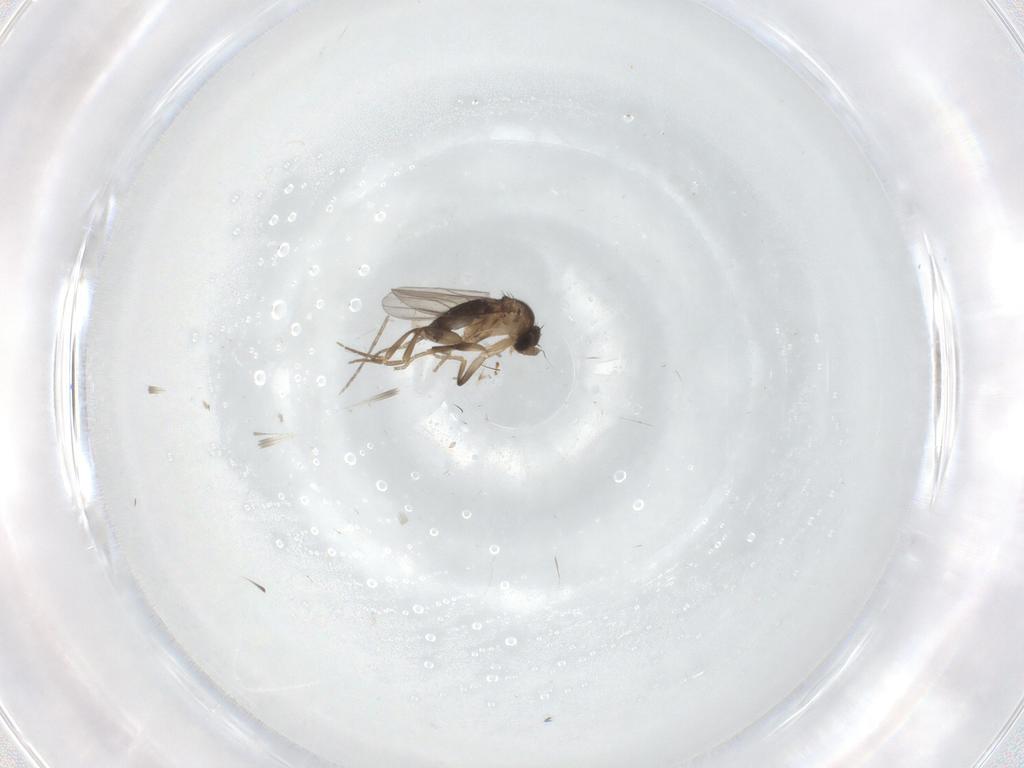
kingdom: Animalia
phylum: Arthropoda
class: Insecta
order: Diptera
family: Phoridae
